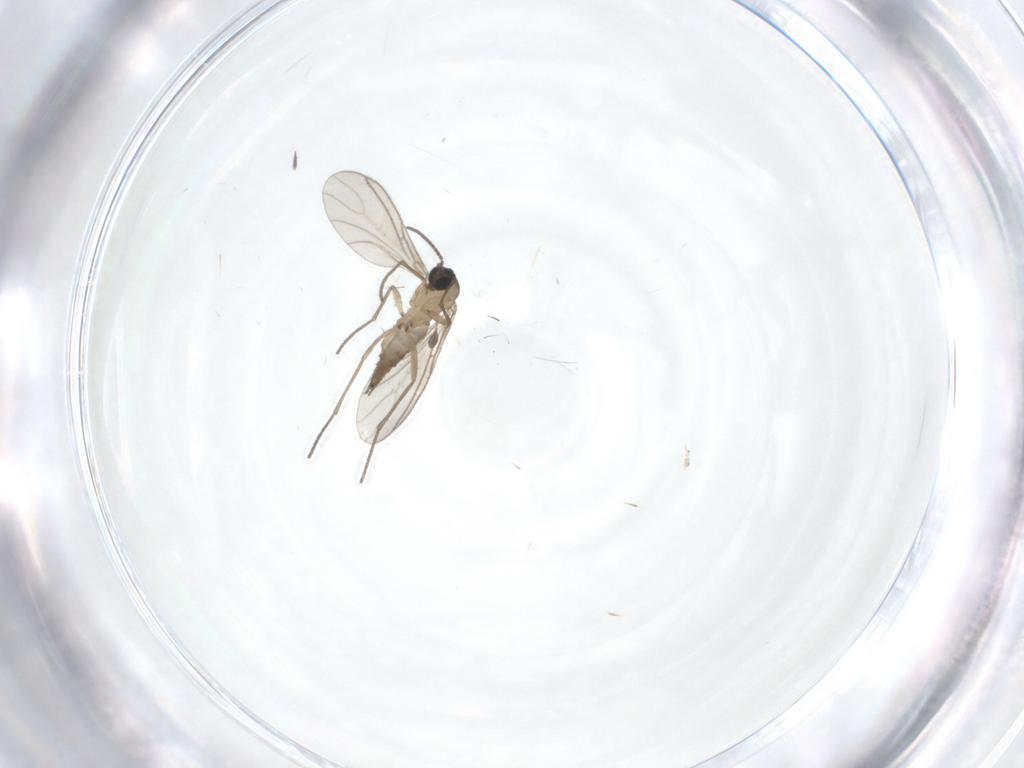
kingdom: Animalia
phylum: Arthropoda
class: Insecta
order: Diptera
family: Sciaridae
